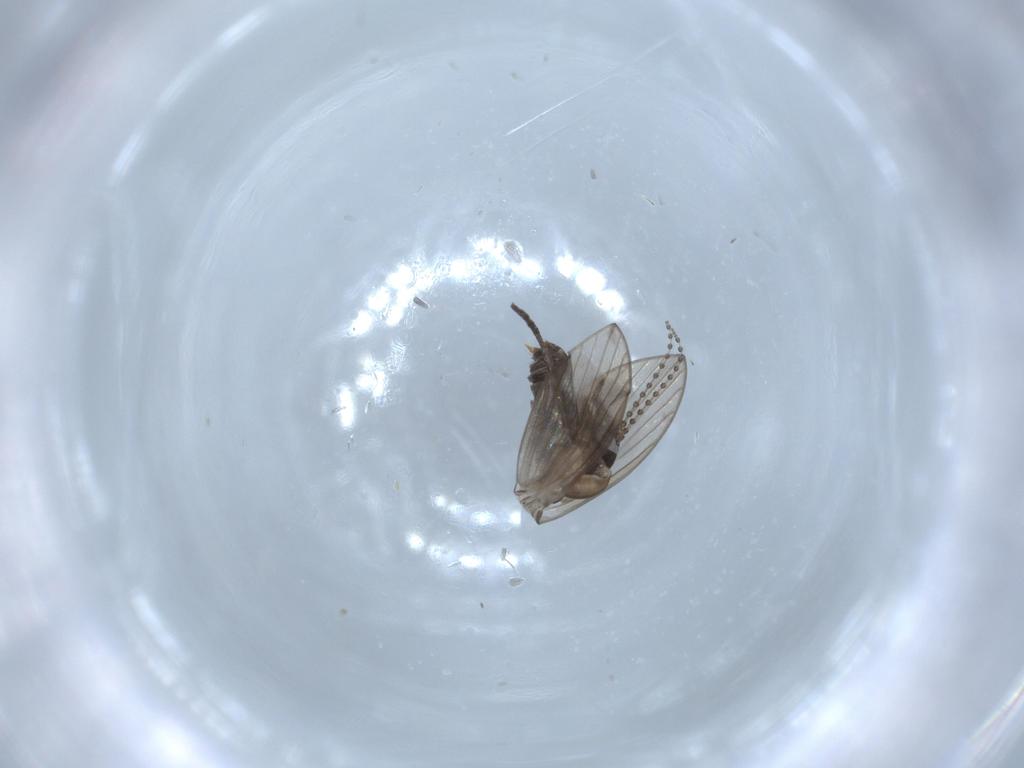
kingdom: Animalia
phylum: Arthropoda
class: Insecta
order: Diptera
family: Psychodidae
